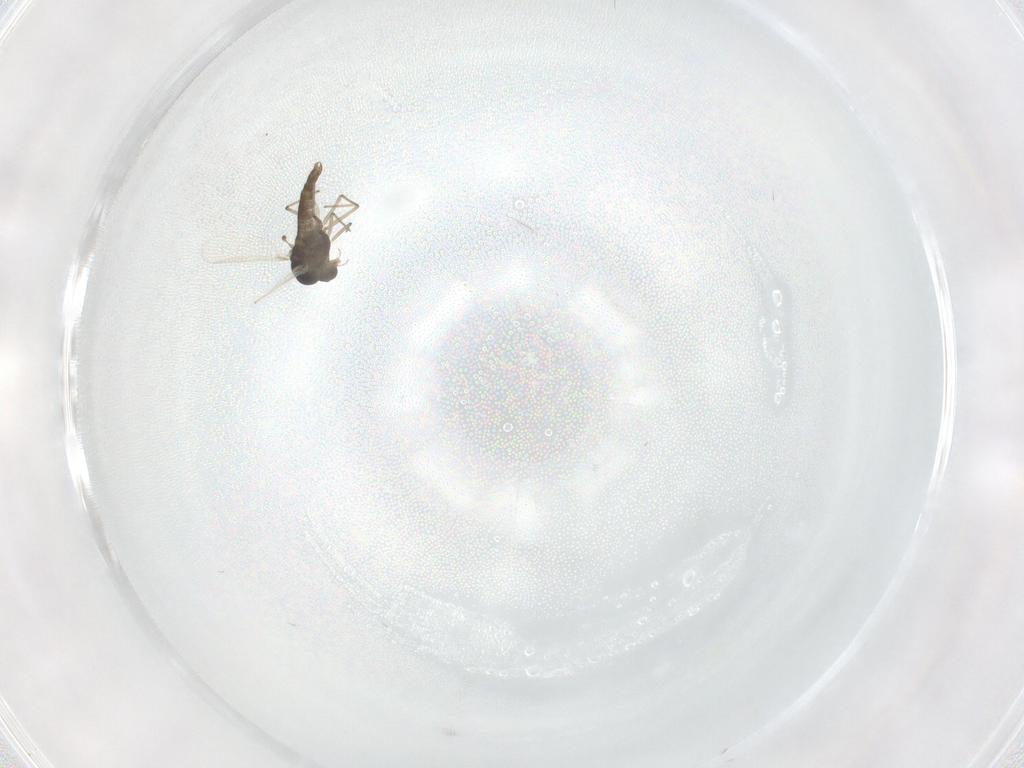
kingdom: Animalia
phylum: Arthropoda
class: Insecta
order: Diptera
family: Chironomidae
